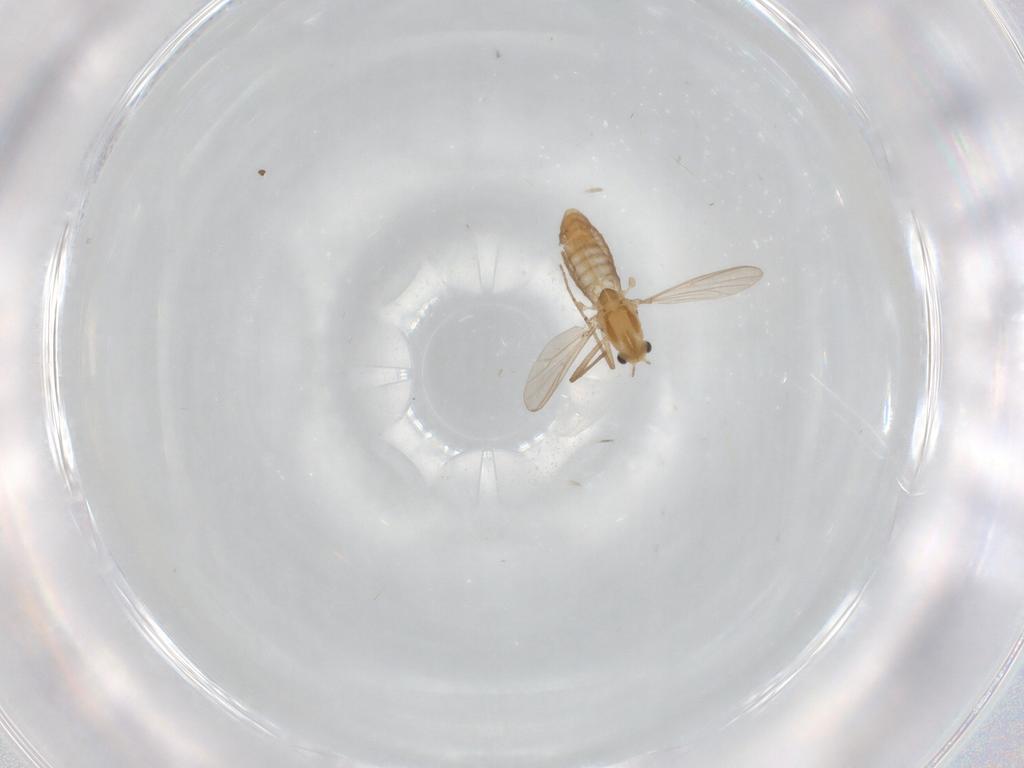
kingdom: Animalia
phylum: Arthropoda
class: Insecta
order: Diptera
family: Chironomidae
